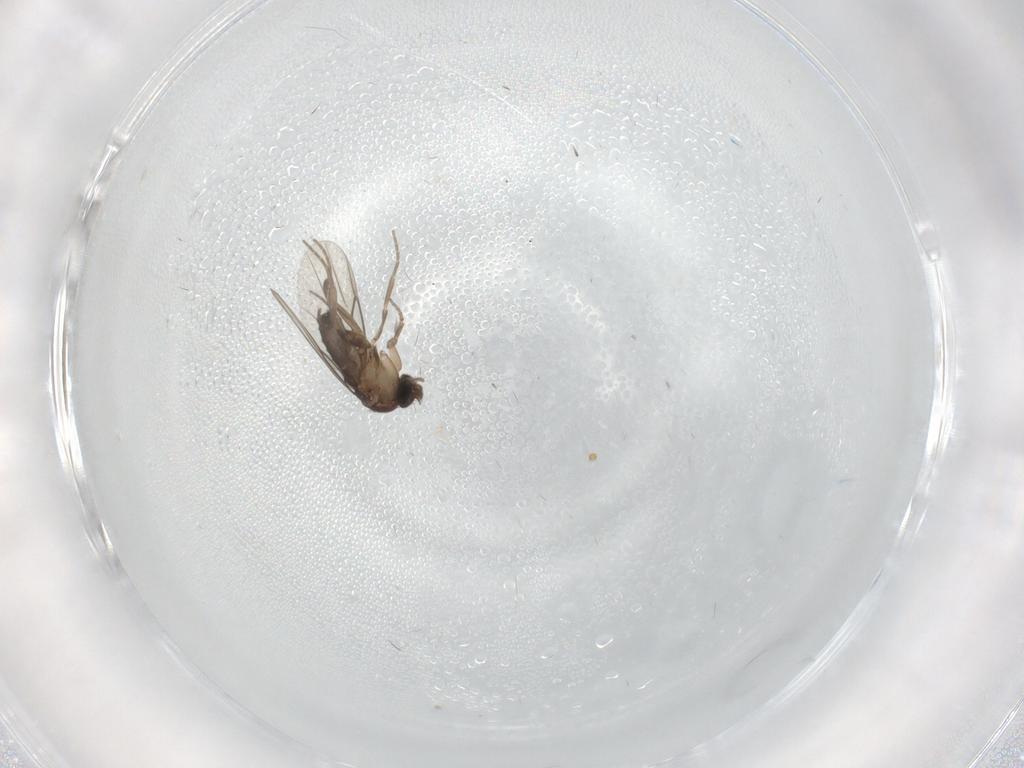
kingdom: Animalia
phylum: Arthropoda
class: Insecta
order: Diptera
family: Phoridae
